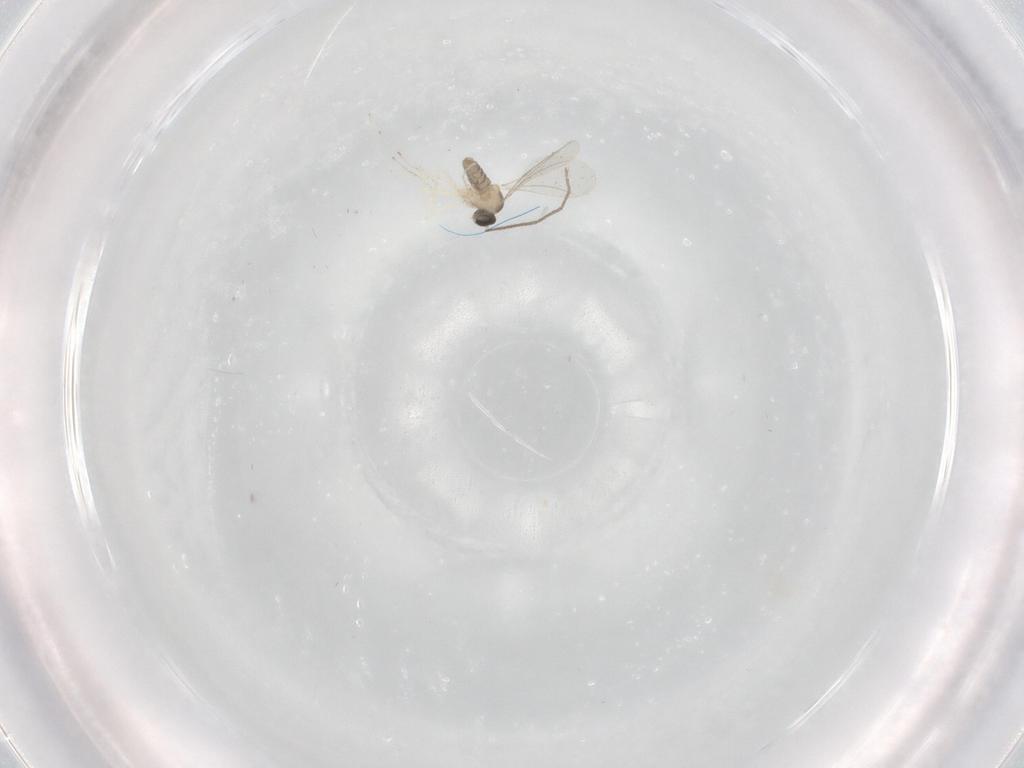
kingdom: Animalia
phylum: Arthropoda
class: Insecta
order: Diptera
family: Cecidomyiidae
